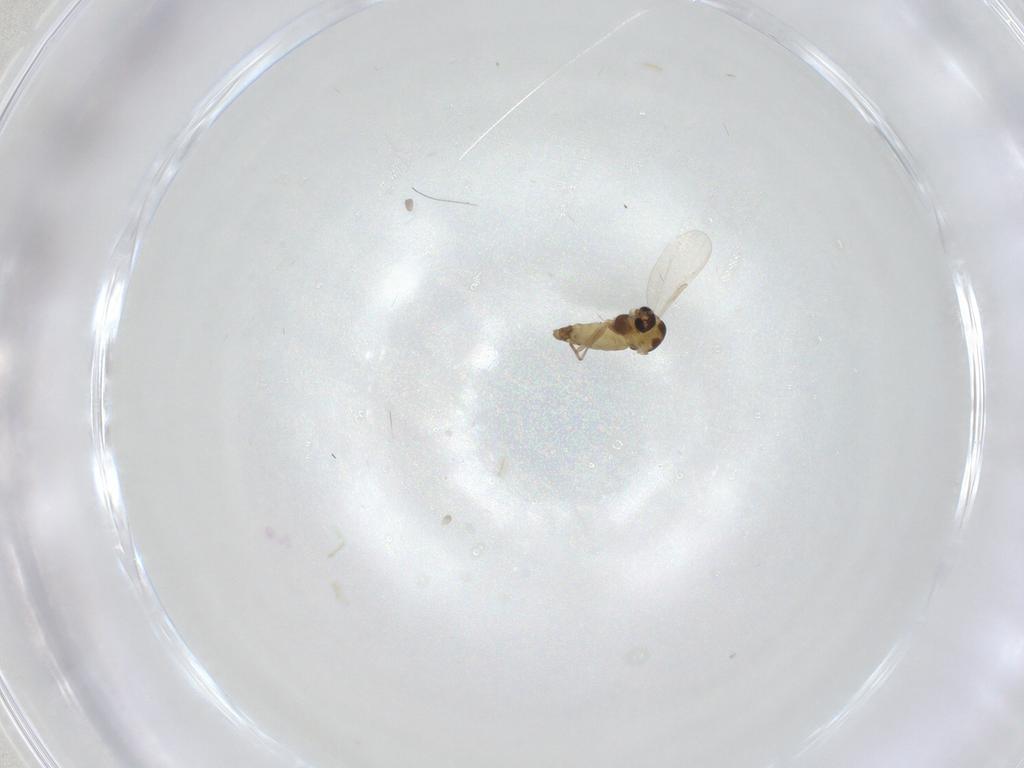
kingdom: Animalia
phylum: Arthropoda
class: Insecta
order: Diptera
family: Chironomidae
